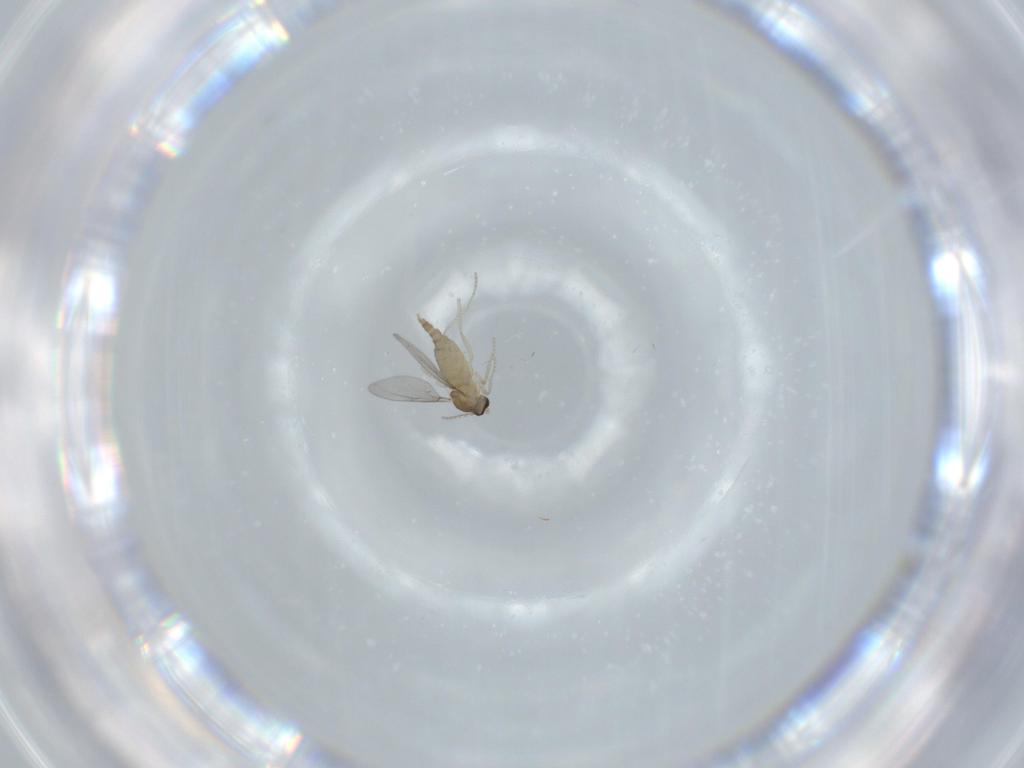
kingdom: Animalia
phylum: Arthropoda
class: Insecta
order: Diptera
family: Cecidomyiidae
